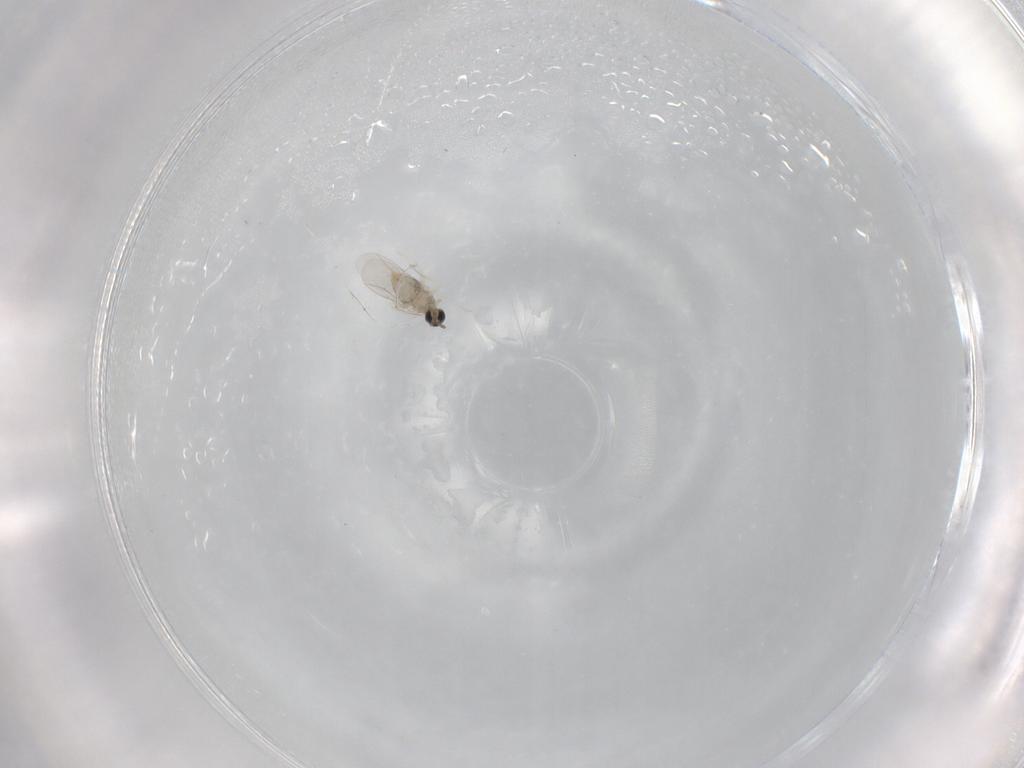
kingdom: Animalia
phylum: Arthropoda
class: Insecta
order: Diptera
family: Cecidomyiidae
